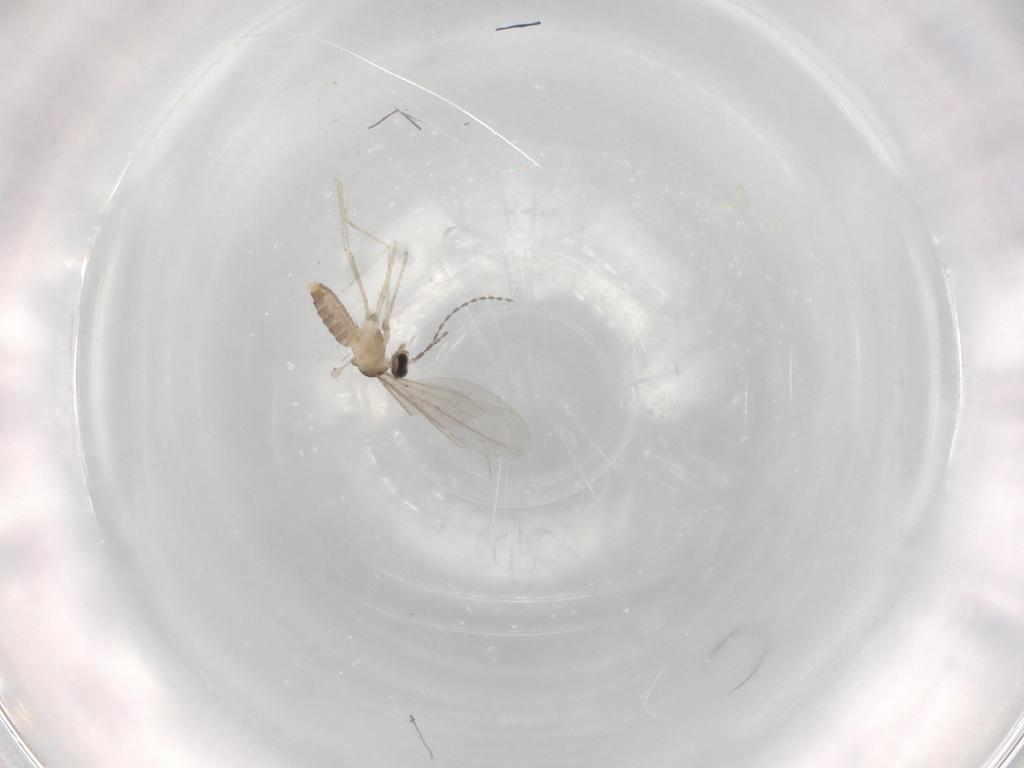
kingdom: Animalia
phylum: Arthropoda
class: Insecta
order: Diptera
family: Cecidomyiidae
